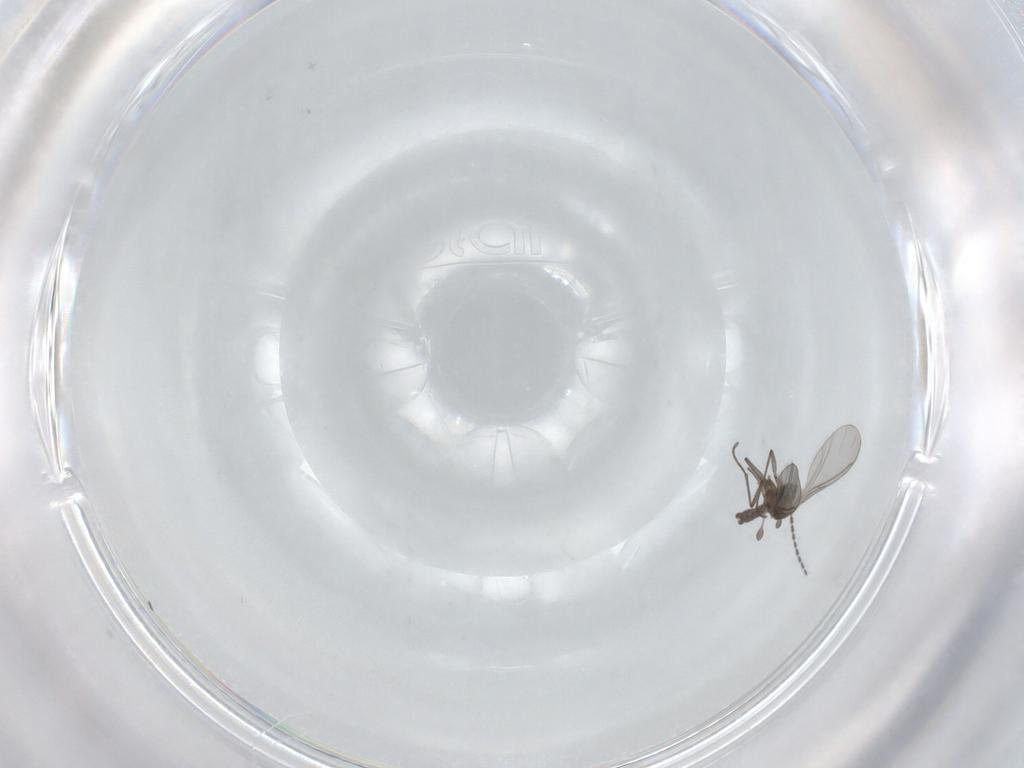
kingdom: Animalia
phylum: Arthropoda
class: Insecta
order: Diptera
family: Sciaridae
